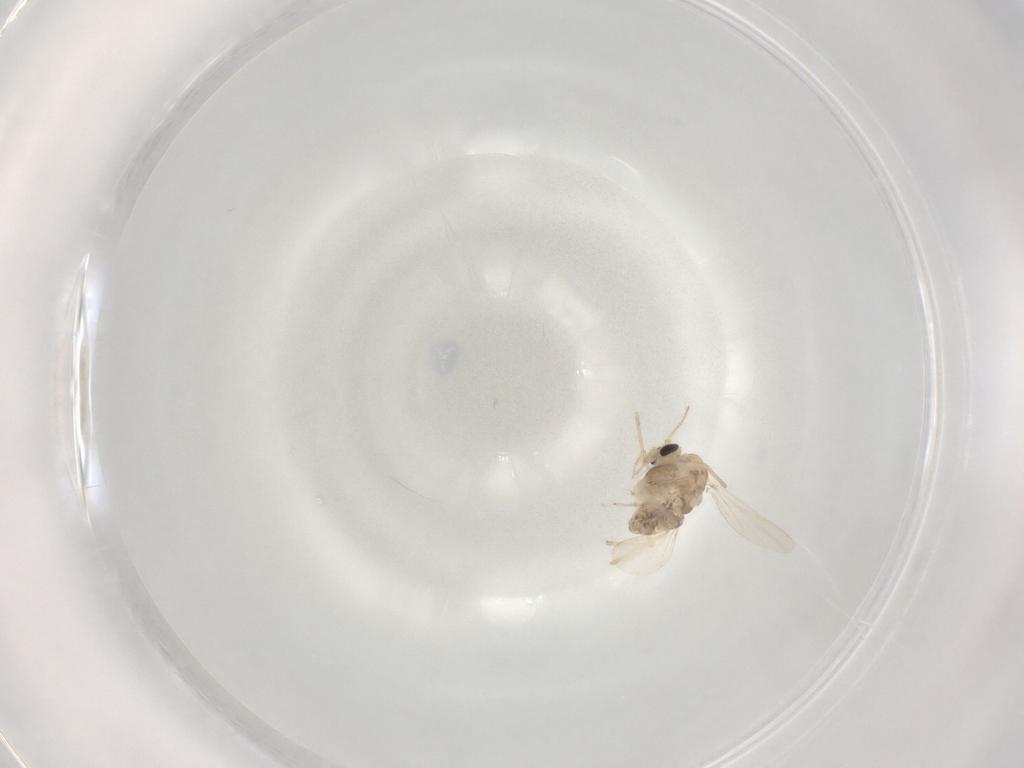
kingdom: Animalia
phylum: Arthropoda
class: Insecta
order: Diptera
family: Chironomidae
